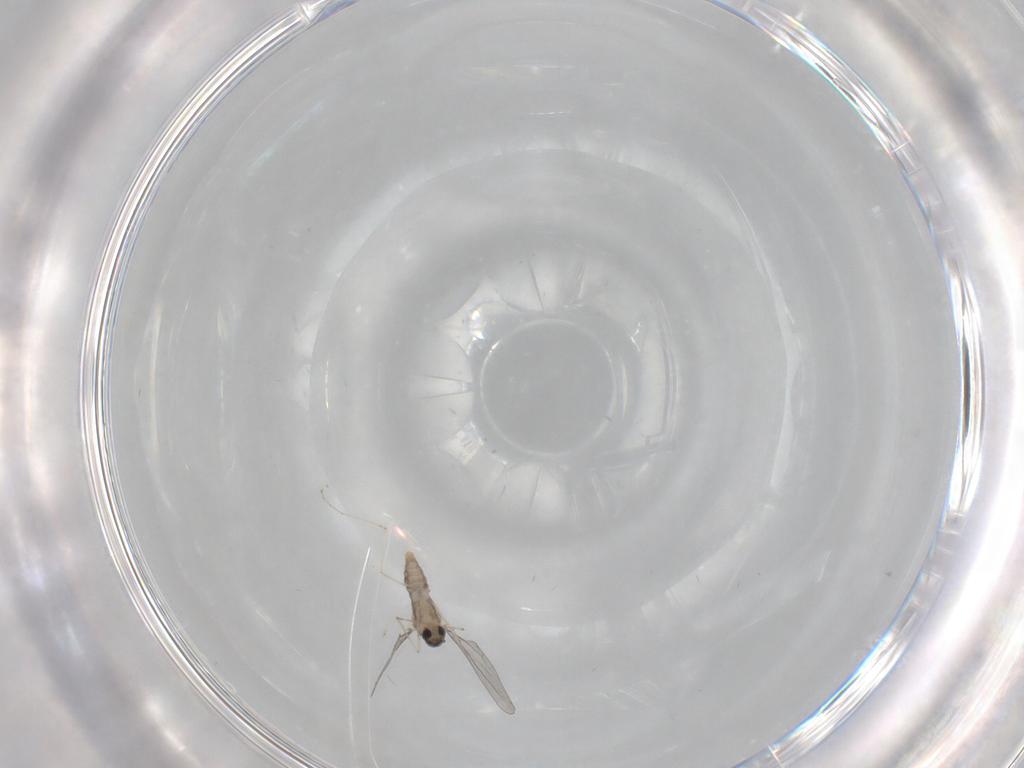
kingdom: Animalia
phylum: Arthropoda
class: Insecta
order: Diptera
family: Cecidomyiidae
